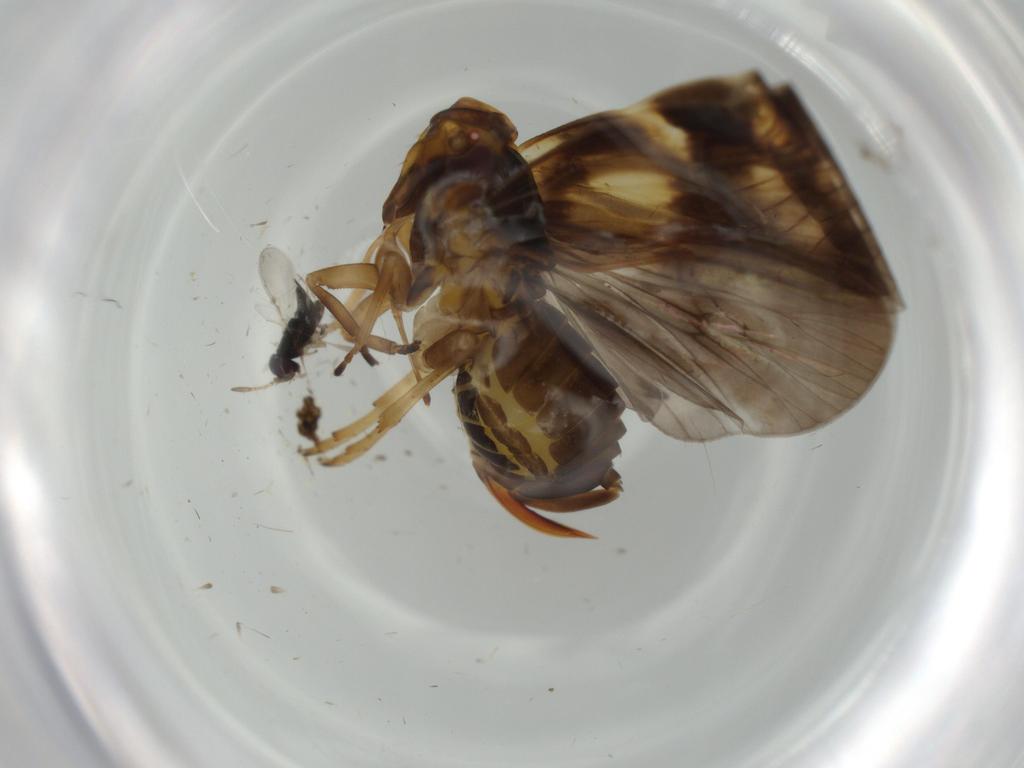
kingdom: Animalia
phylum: Arthropoda
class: Insecta
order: Hemiptera
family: Cixiidae
